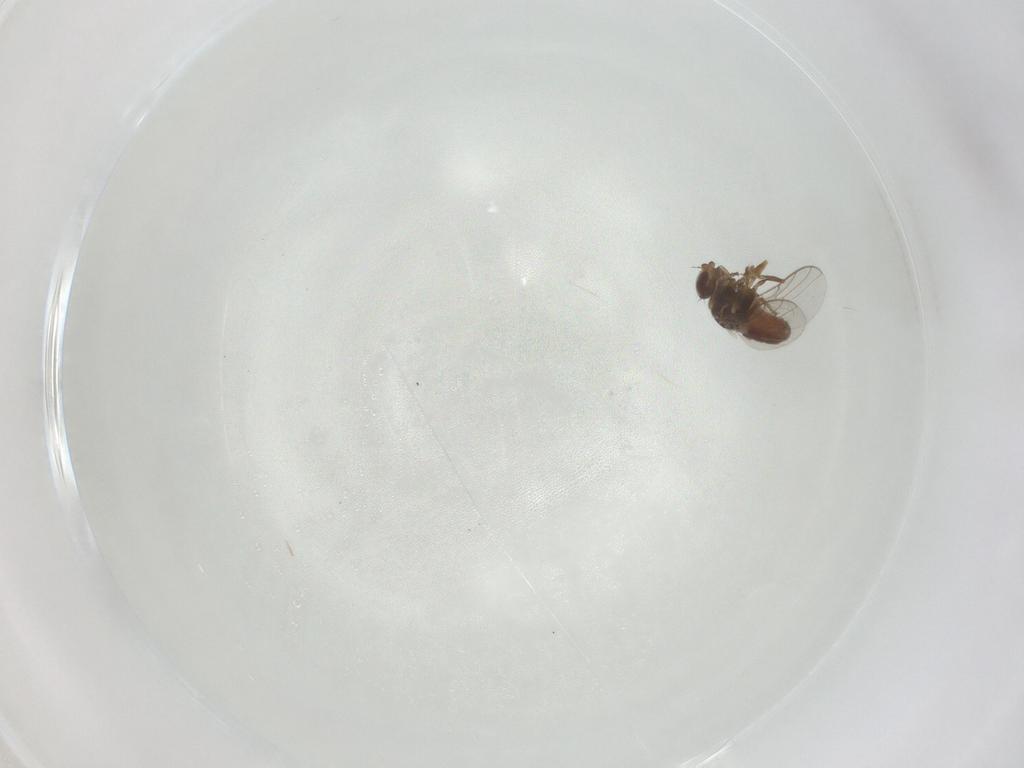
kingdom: Animalia
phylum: Arthropoda
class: Insecta
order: Diptera
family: Chloropidae
